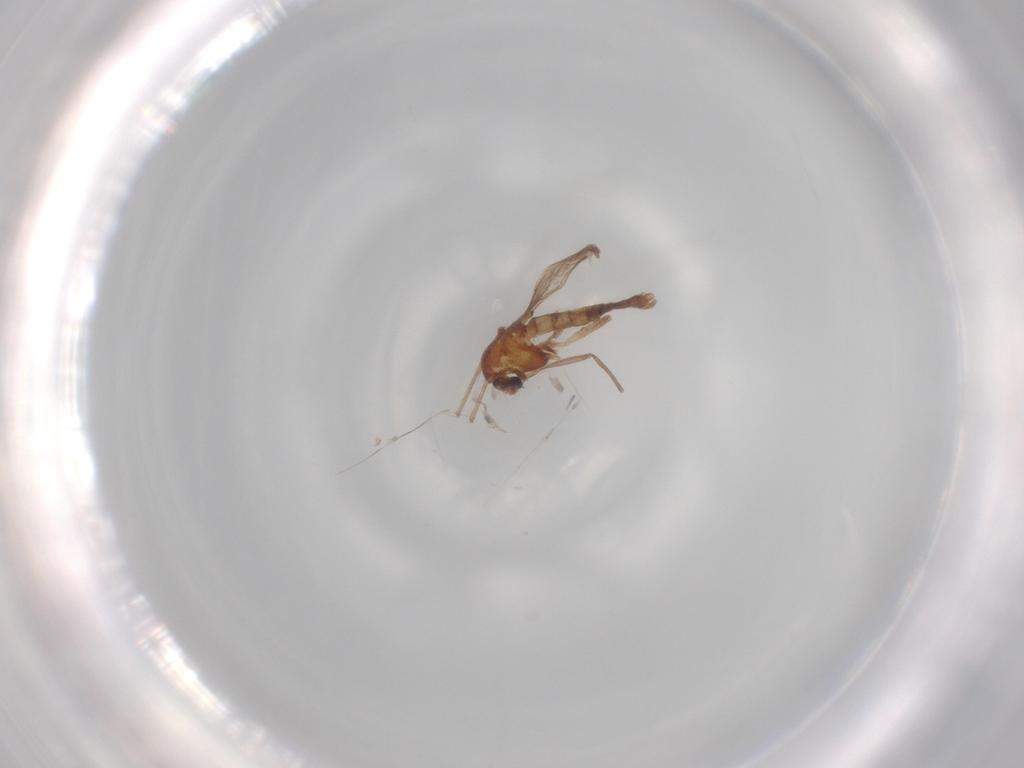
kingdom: Animalia
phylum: Arthropoda
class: Insecta
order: Diptera
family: Chironomidae
